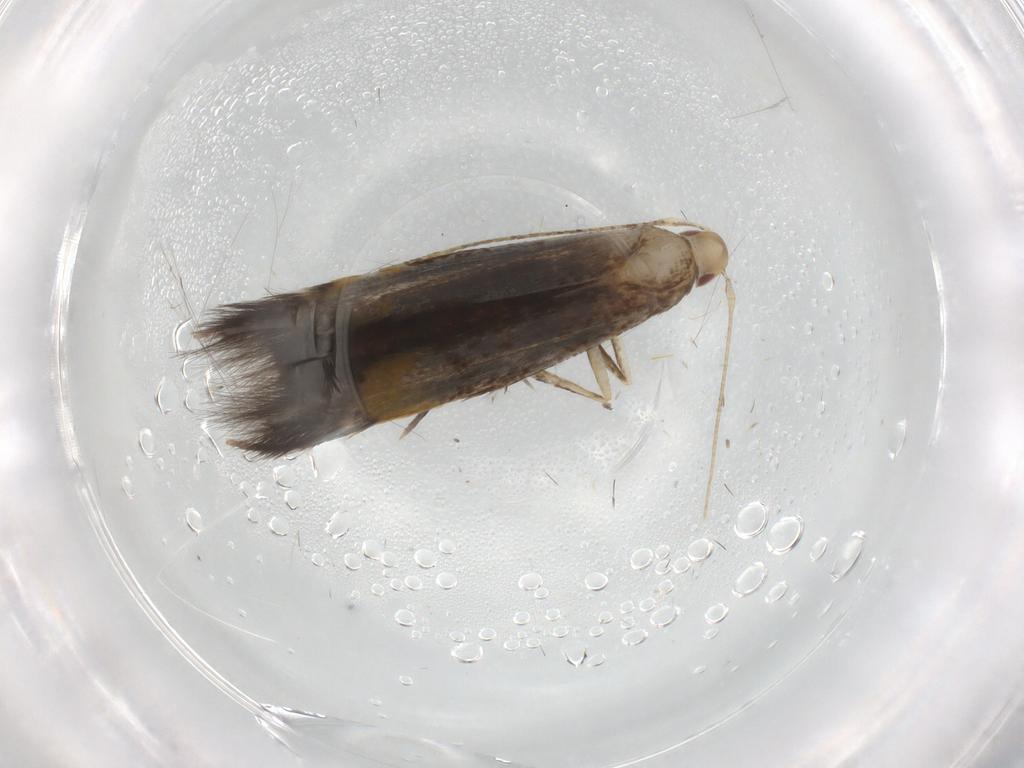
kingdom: Animalia
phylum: Arthropoda
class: Insecta
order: Lepidoptera
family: Cosmopterigidae
